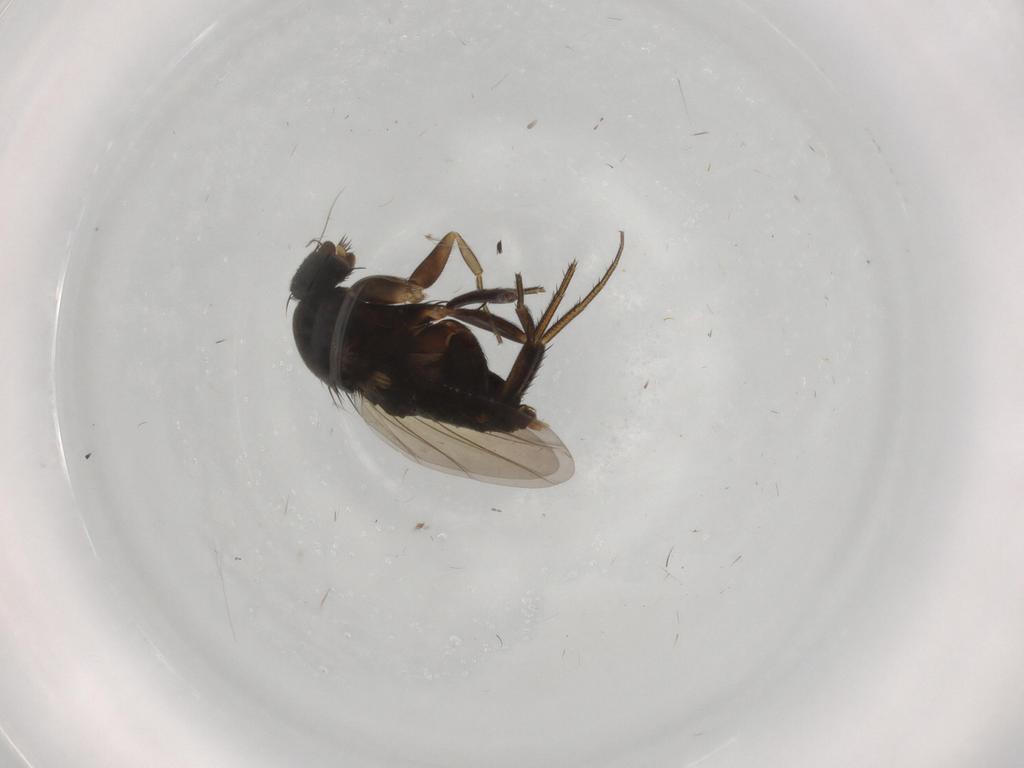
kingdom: Animalia
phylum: Arthropoda
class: Insecta
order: Diptera
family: Phoridae
